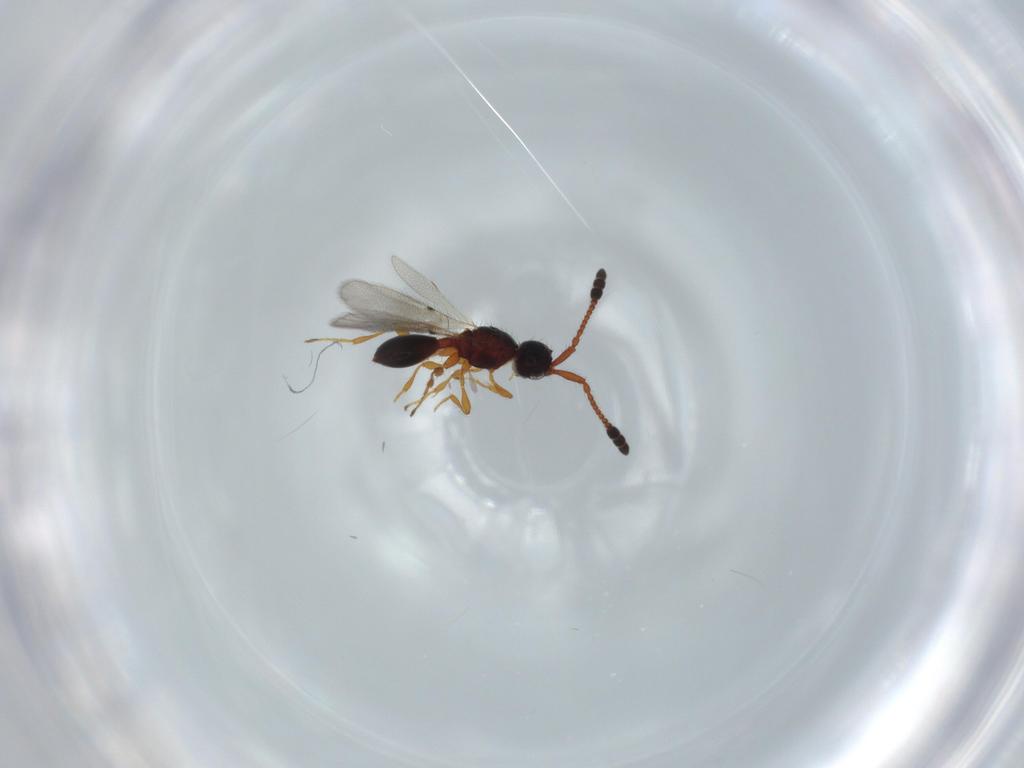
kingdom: Animalia
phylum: Arthropoda
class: Insecta
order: Hymenoptera
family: Diapriidae
